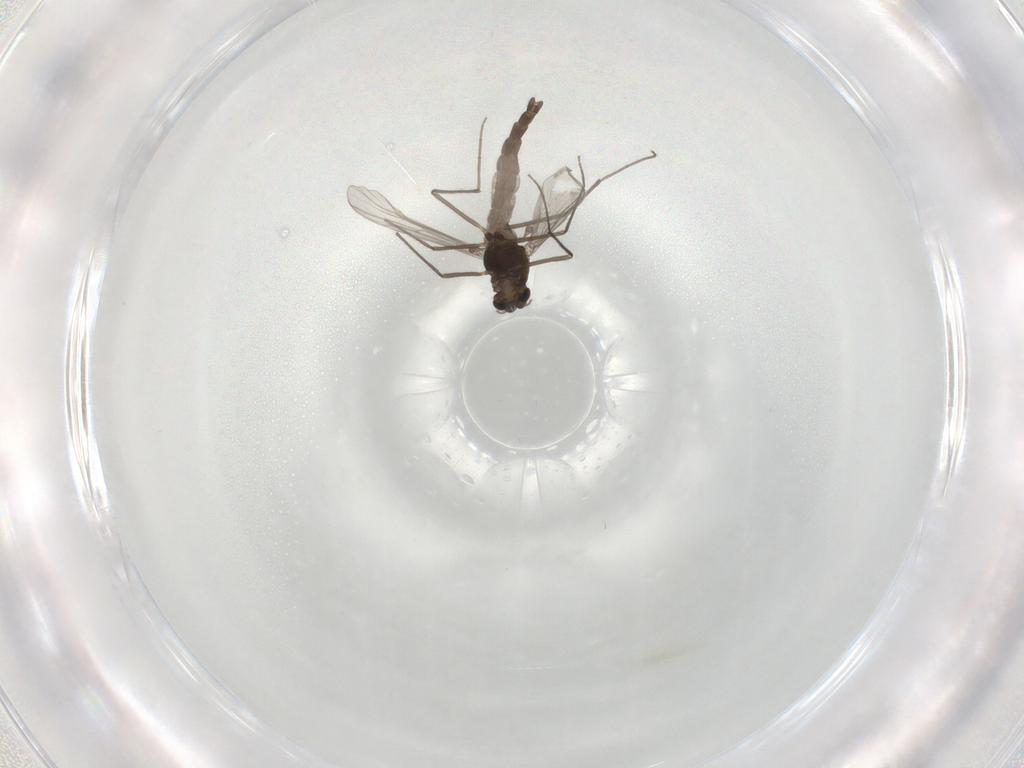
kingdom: Animalia
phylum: Arthropoda
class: Insecta
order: Diptera
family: Chironomidae
